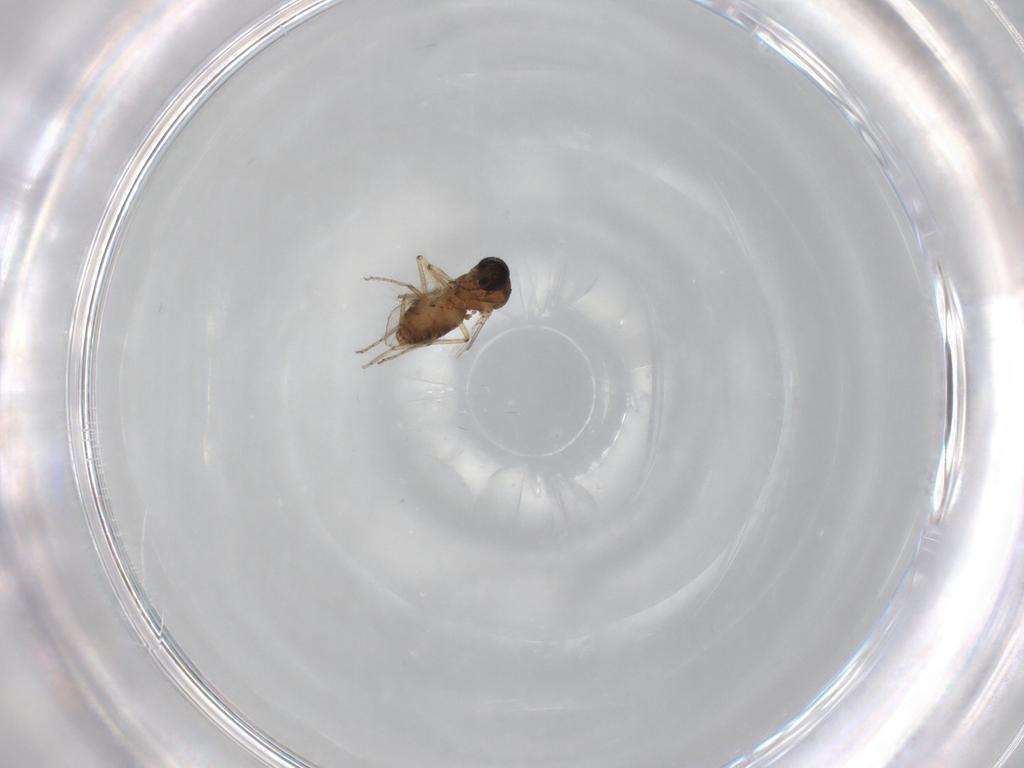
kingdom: Animalia
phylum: Arthropoda
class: Insecta
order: Diptera
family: Ceratopogonidae
